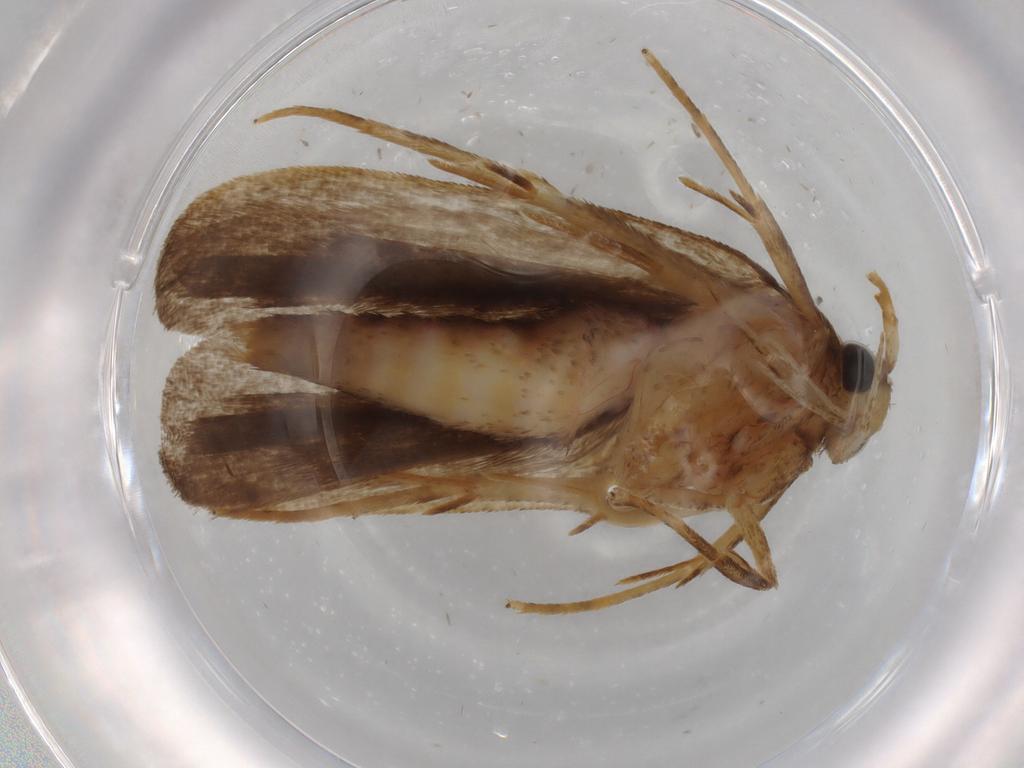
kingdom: Animalia
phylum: Arthropoda
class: Insecta
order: Lepidoptera
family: Autostichidae
